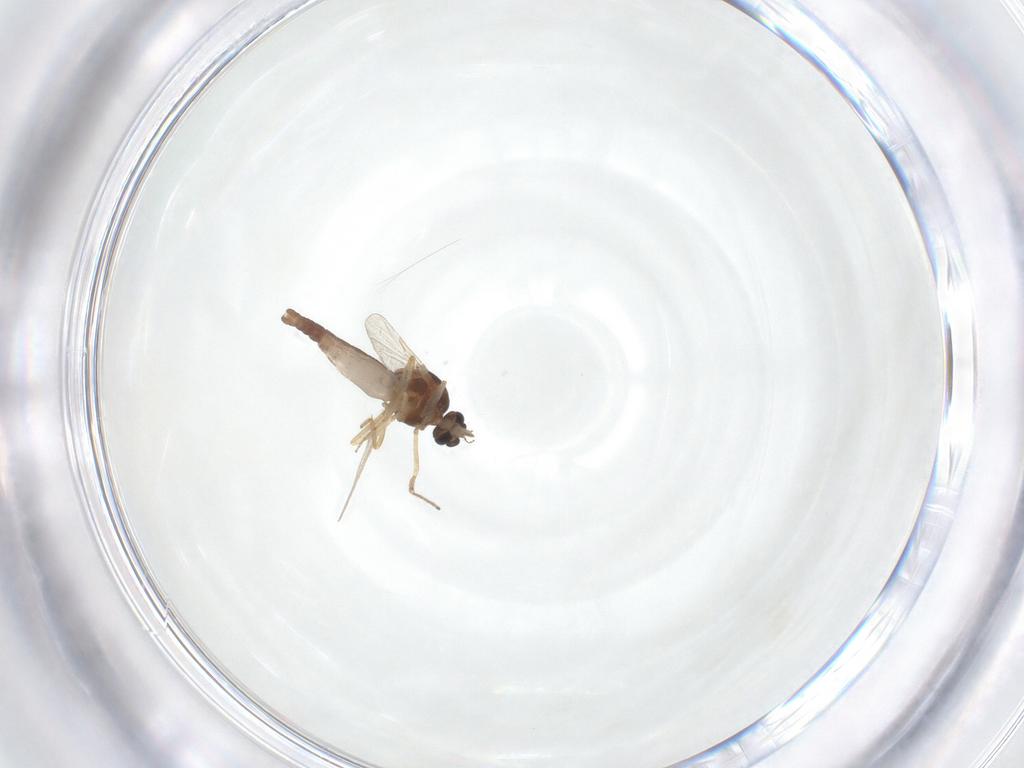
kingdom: Animalia
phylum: Arthropoda
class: Insecta
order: Diptera
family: Ceratopogonidae
